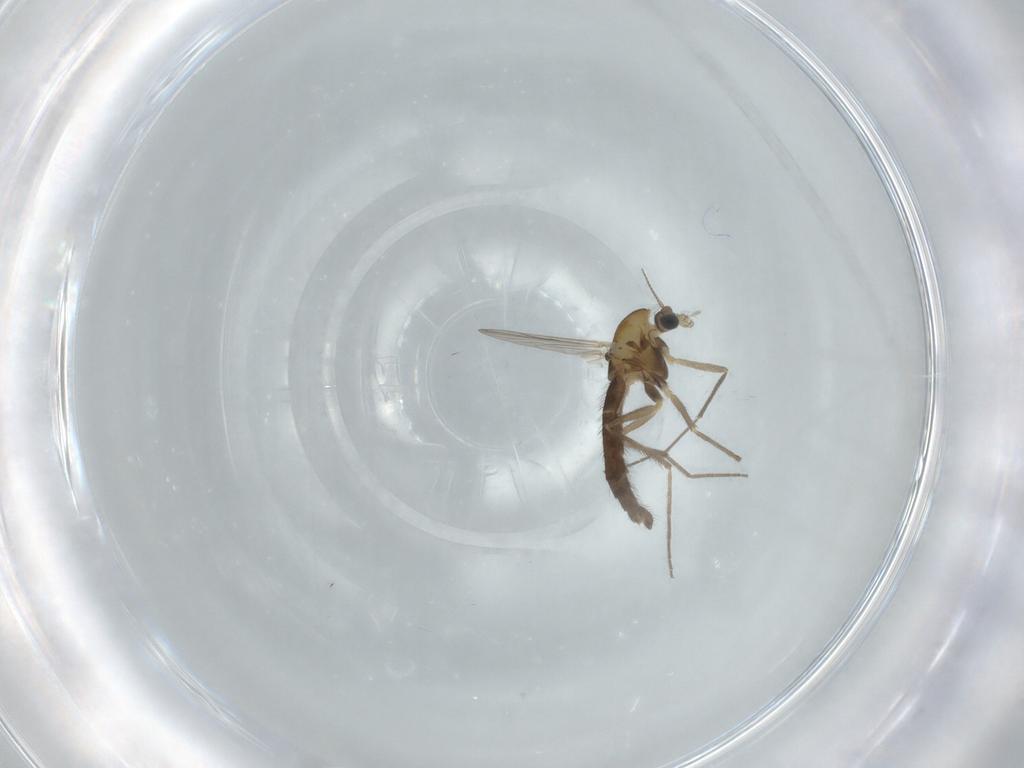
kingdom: Animalia
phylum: Arthropoda
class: Insecta
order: Diptera
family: Chironomidae
